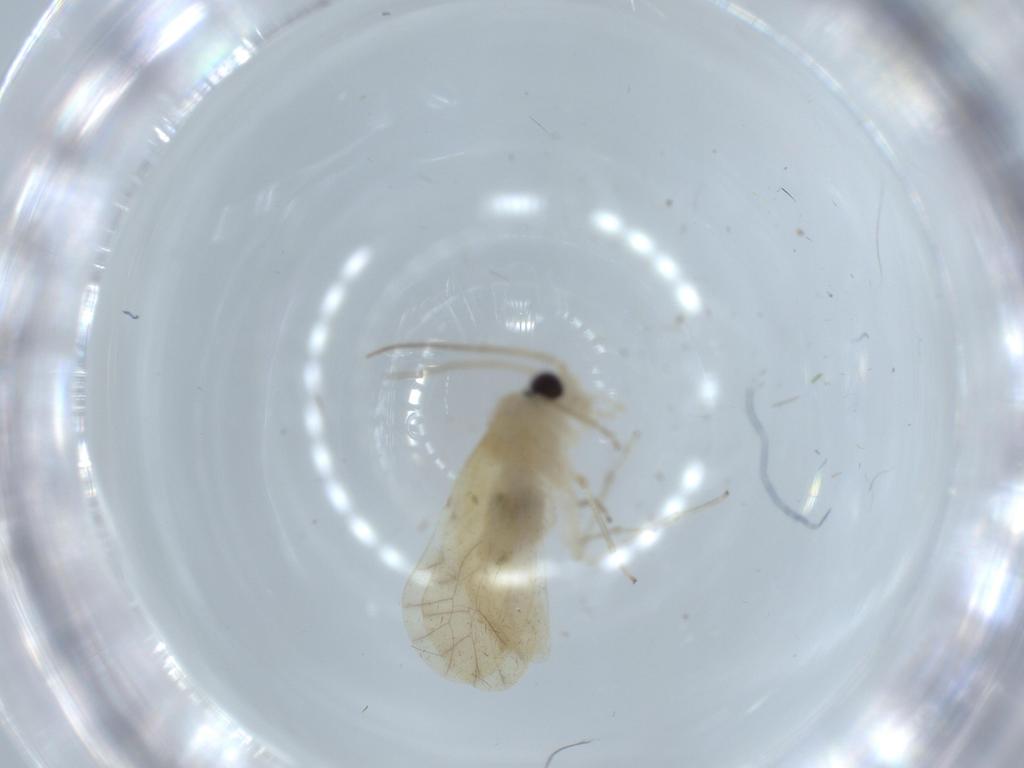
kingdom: Animalia
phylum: Arthropoda
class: Insecta
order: Psocodea
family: Caeciliusidae
